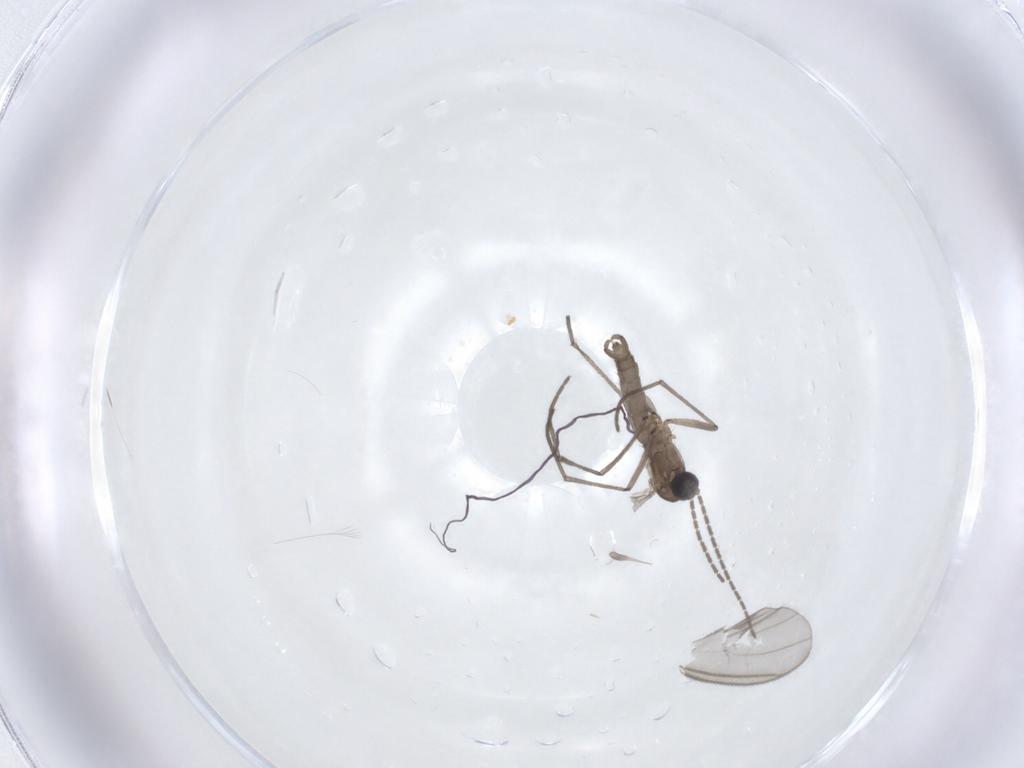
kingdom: Animalia
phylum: Arthropoda
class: Insecta
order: Diptera
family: Sciaridae
